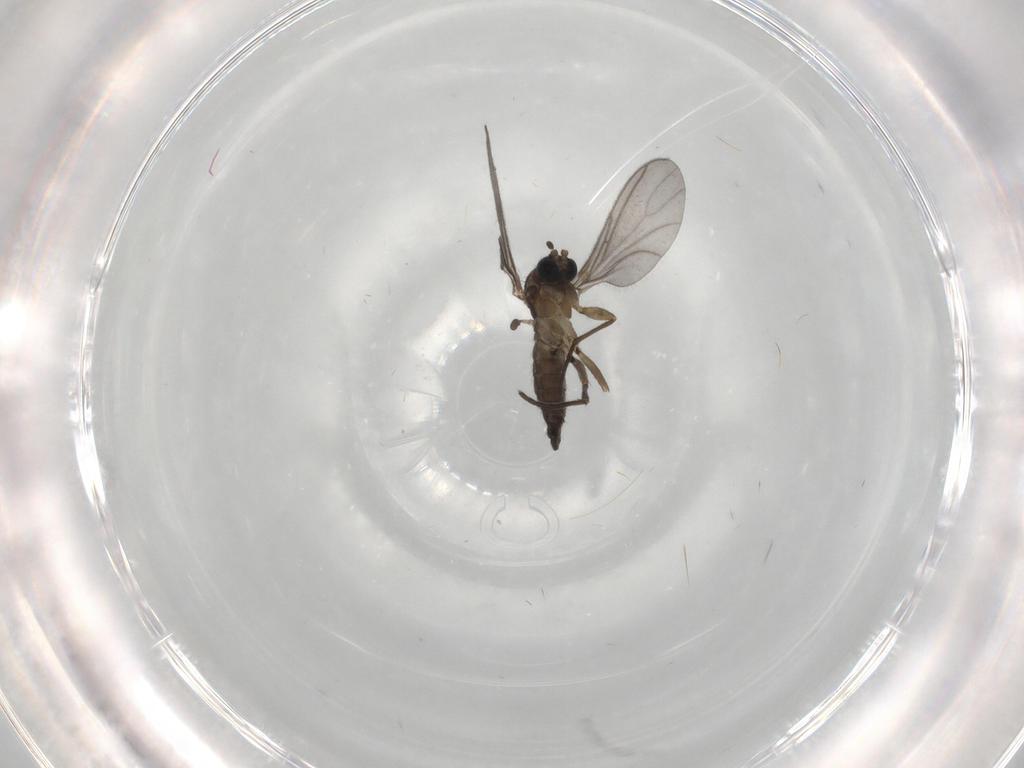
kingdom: Animalia
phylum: Arthropoda
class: Insecta
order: Diptera
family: Sciaridae
